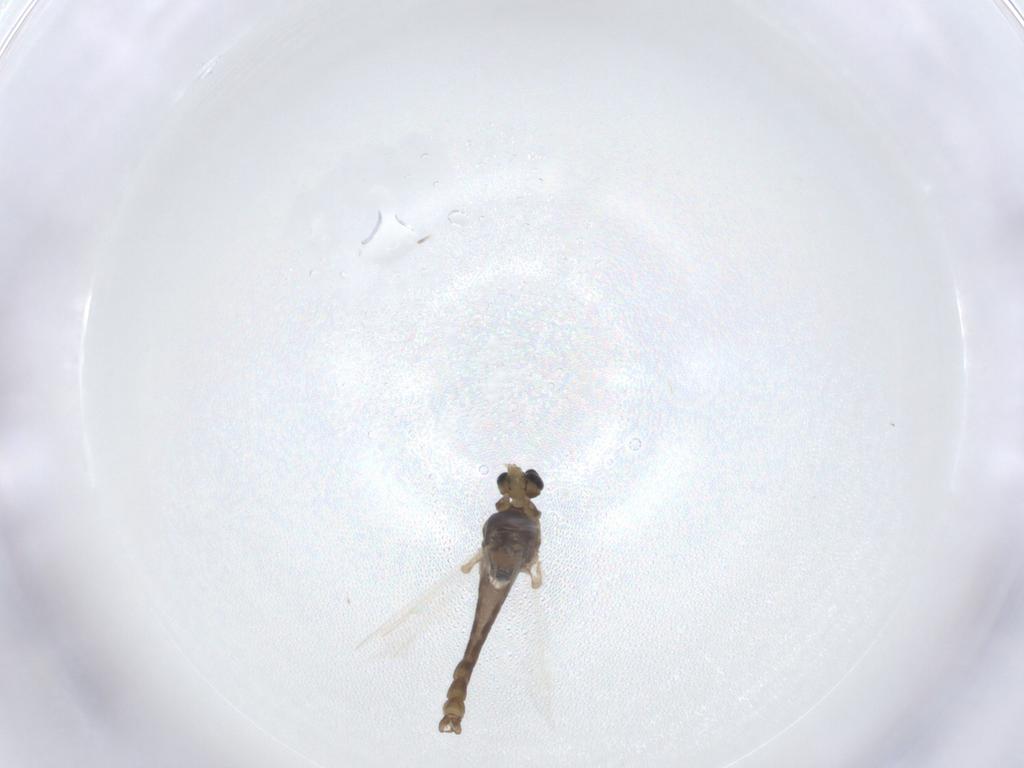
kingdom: Animalia
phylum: Arthropoda
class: Insecta
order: Diptera
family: Chironomidae
